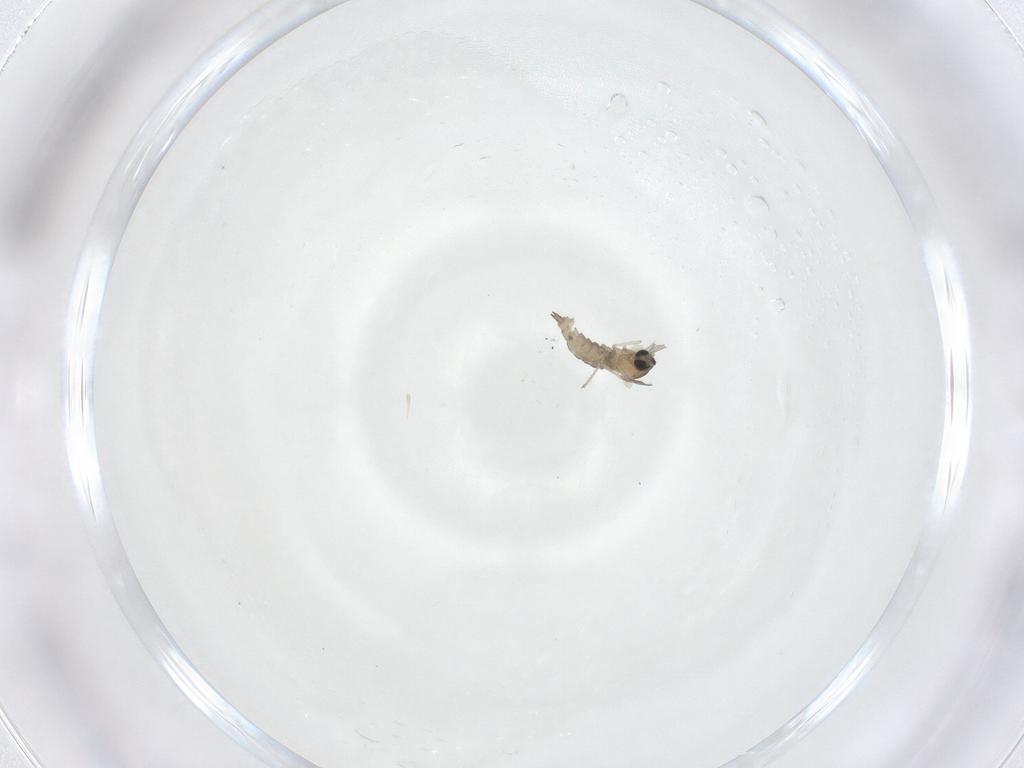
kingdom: Animalia
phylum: Arthropoda
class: Insecta
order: Diptera
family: Cecidomyiidae
